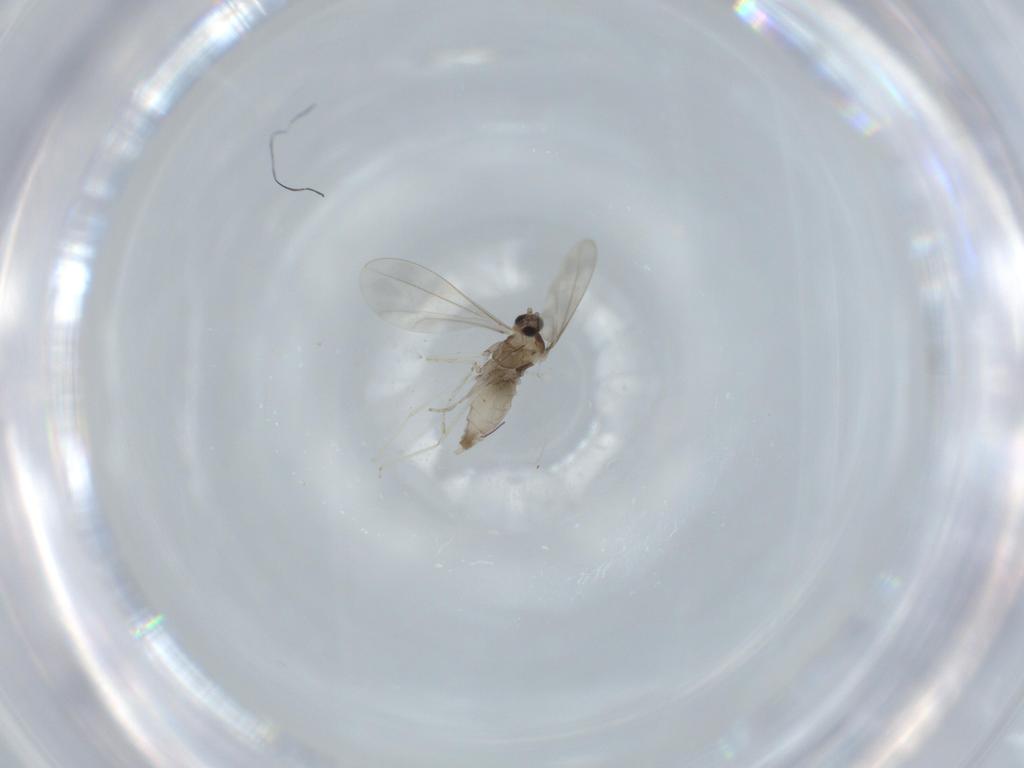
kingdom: Animalia
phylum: Arthropoda
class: Insecta
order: Diptera
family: Cecidomyiidae
